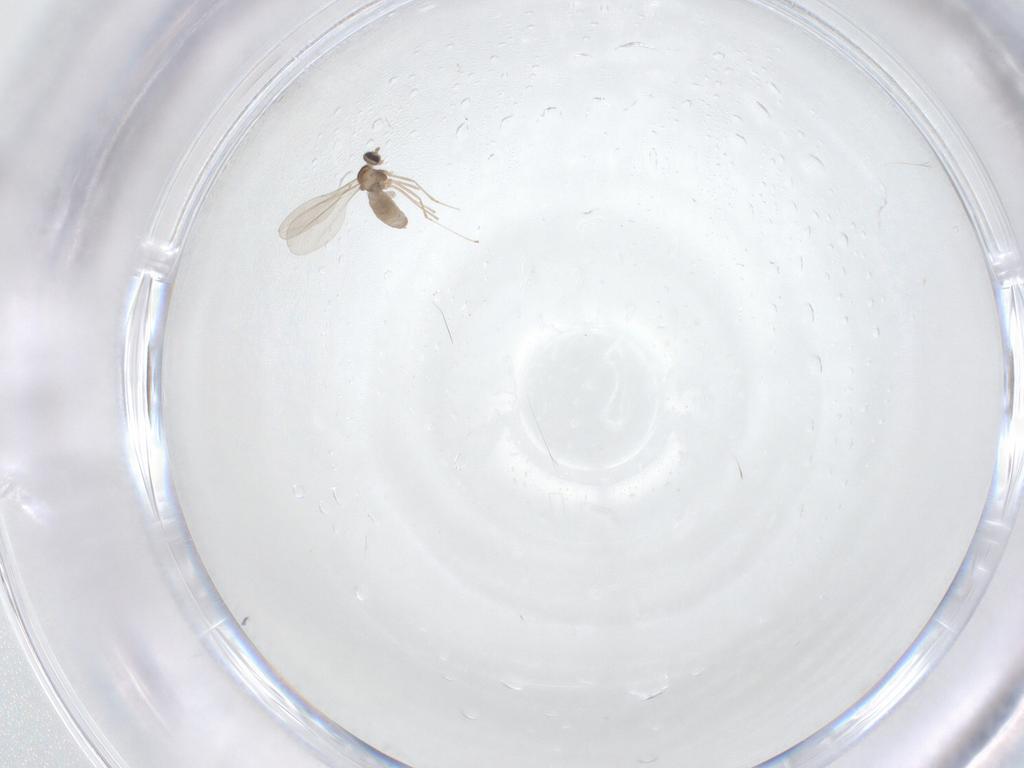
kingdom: Animalia
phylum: Arthropoda
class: Insecta
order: Diptera
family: Cecidomyiidae
